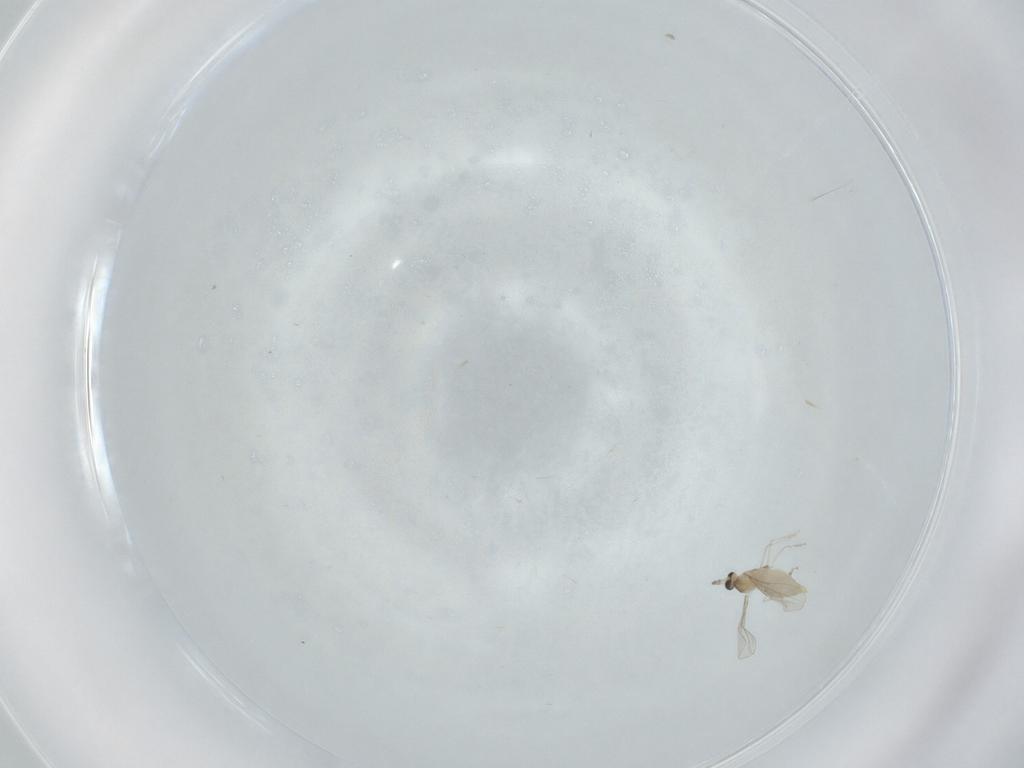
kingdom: Animalia
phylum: Arthropoda
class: Insecta
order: Diptera
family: Cecidomyiidae
